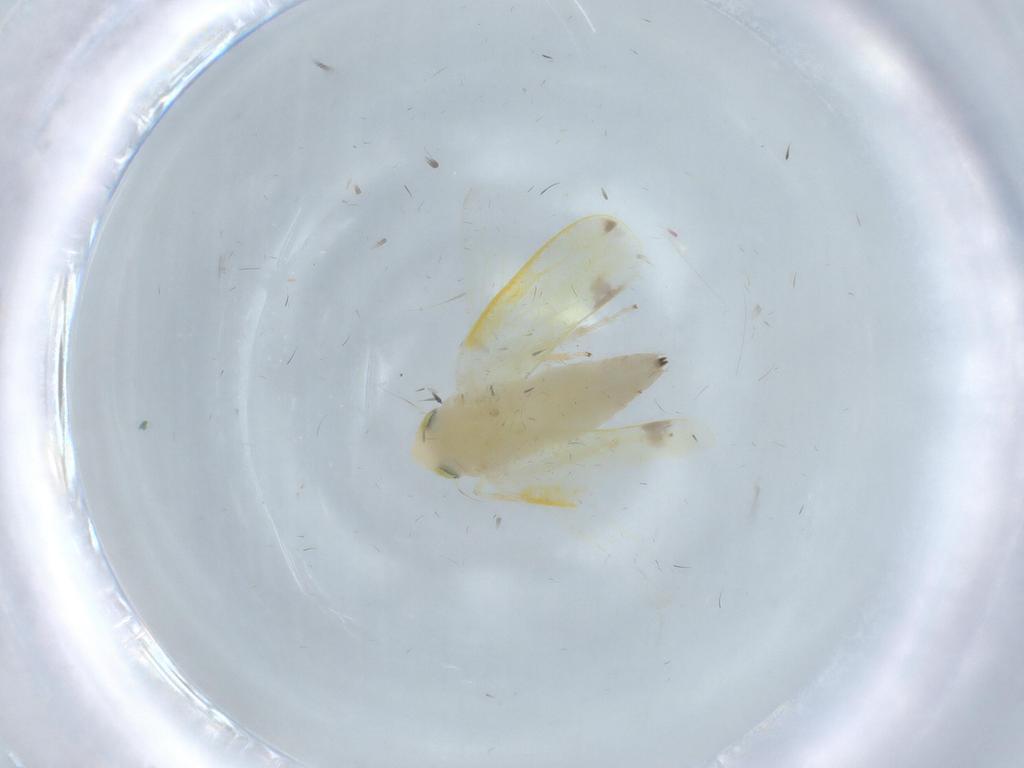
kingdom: Animalia
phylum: Arthropoda
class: Insecta
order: Hemiptera
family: Cicadellidae
